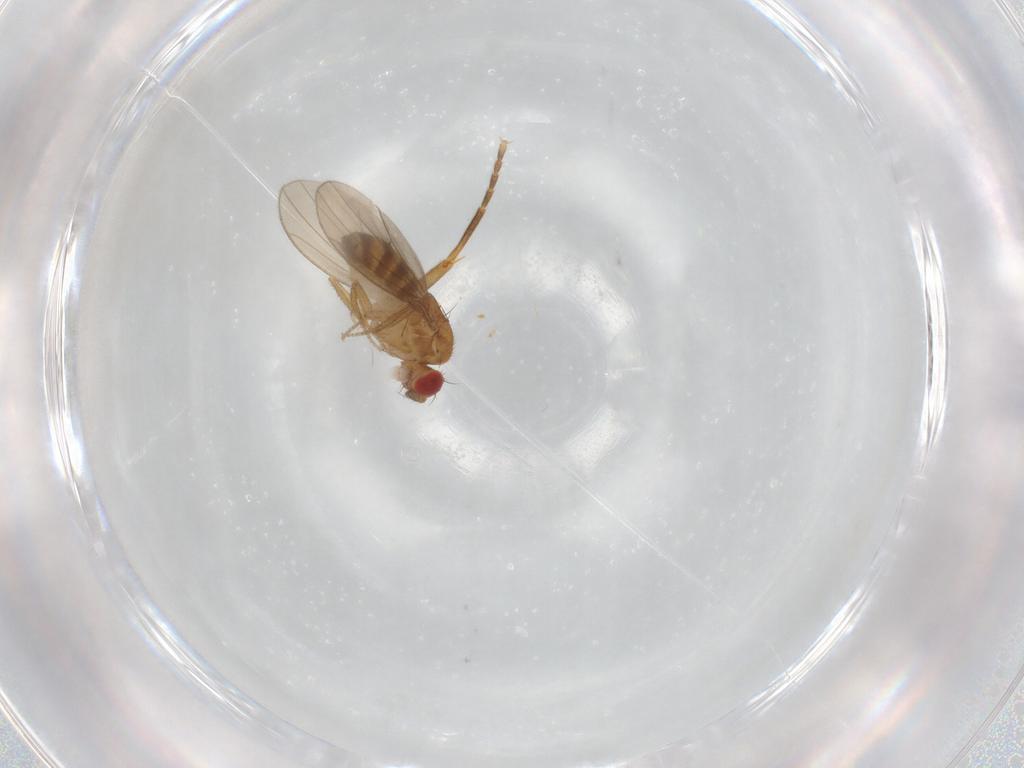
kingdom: Animalia
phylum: Arthropoda
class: Insecta
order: Diptera
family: Drosophilidae
